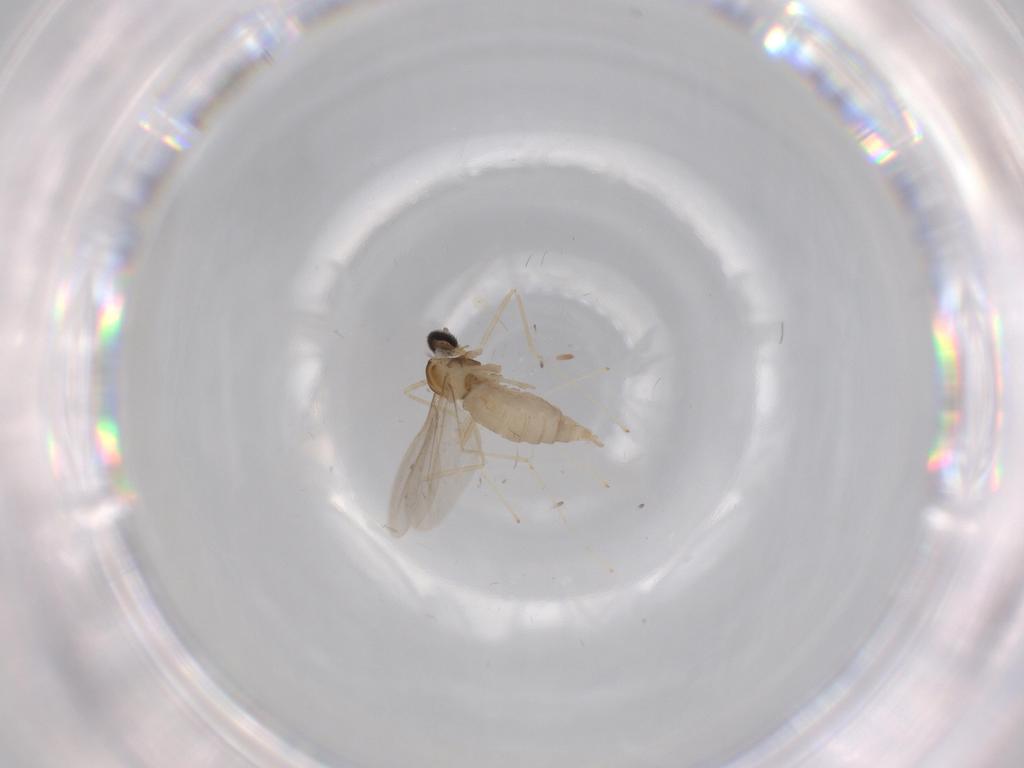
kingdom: Animalia
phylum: Arthropoda
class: Insecta
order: Diptera
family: Cecidomyiidae
